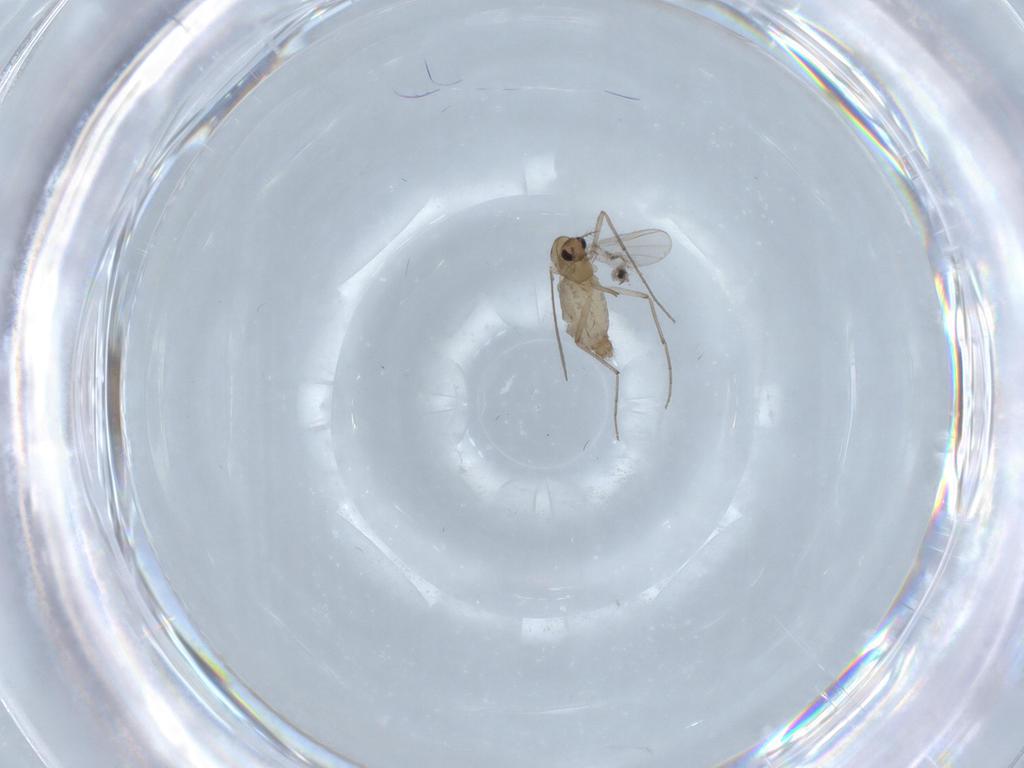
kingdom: Animalia
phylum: Arthropoda
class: Insecta
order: Diptera
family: Chironomidae
